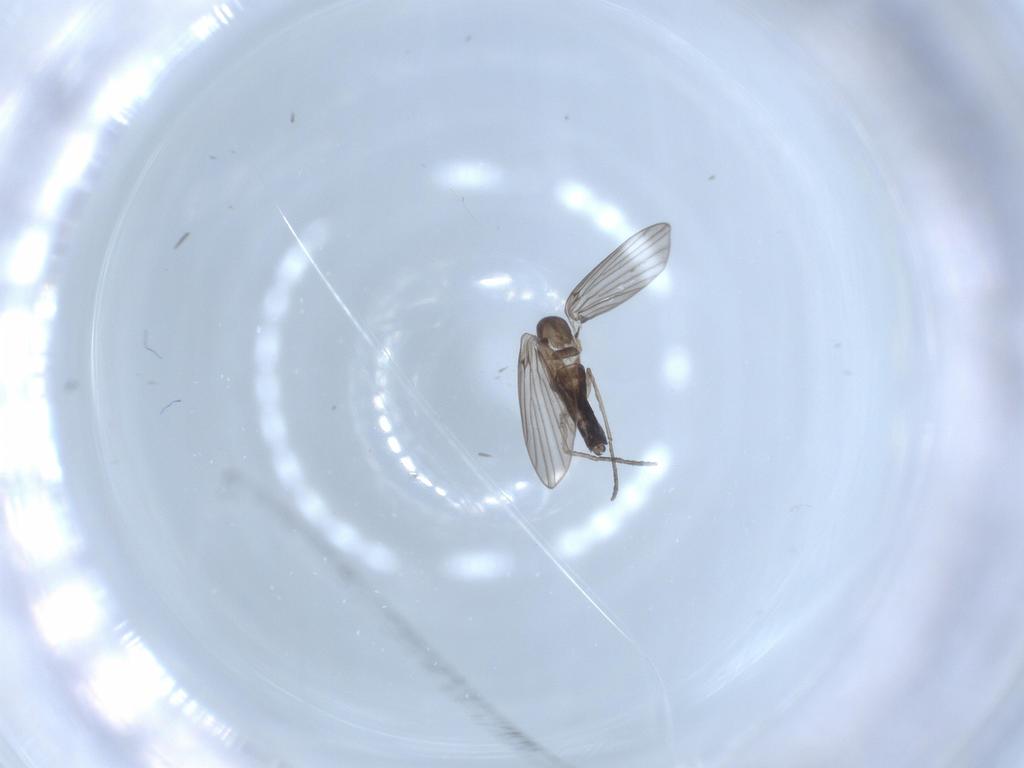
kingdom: Animalia
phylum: Arthropoda
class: Insecta
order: Diptera
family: Psychodidae
